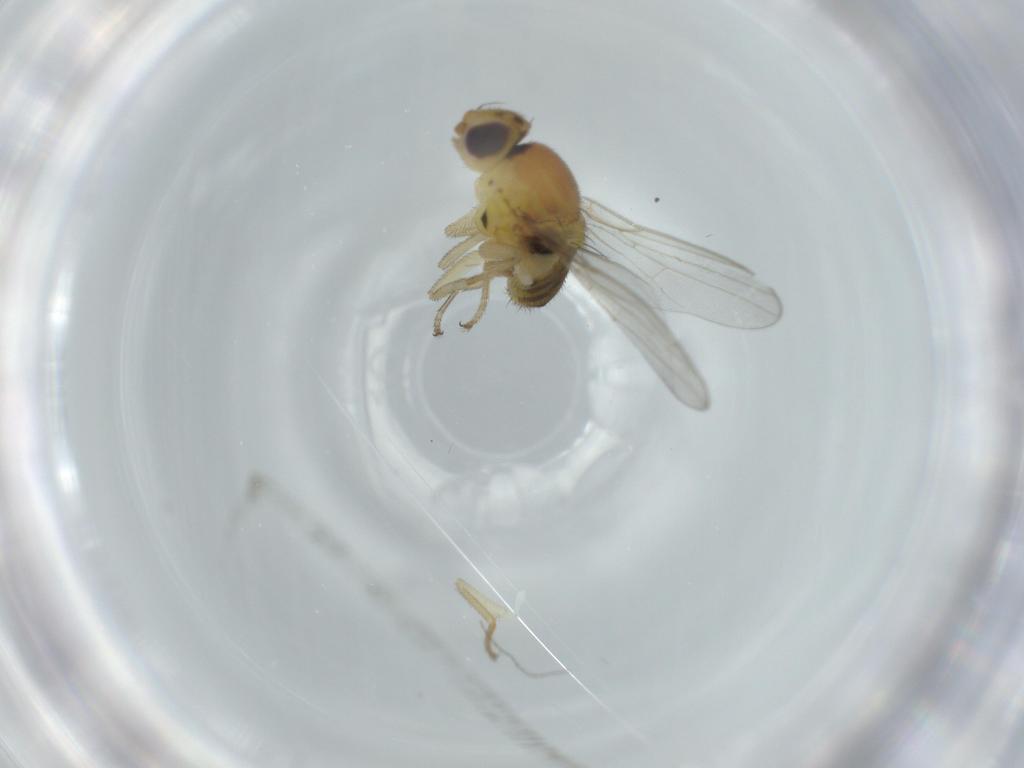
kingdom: Animalia
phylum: Arthropoda
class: Insecta
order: Diptera
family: Chloropidae
